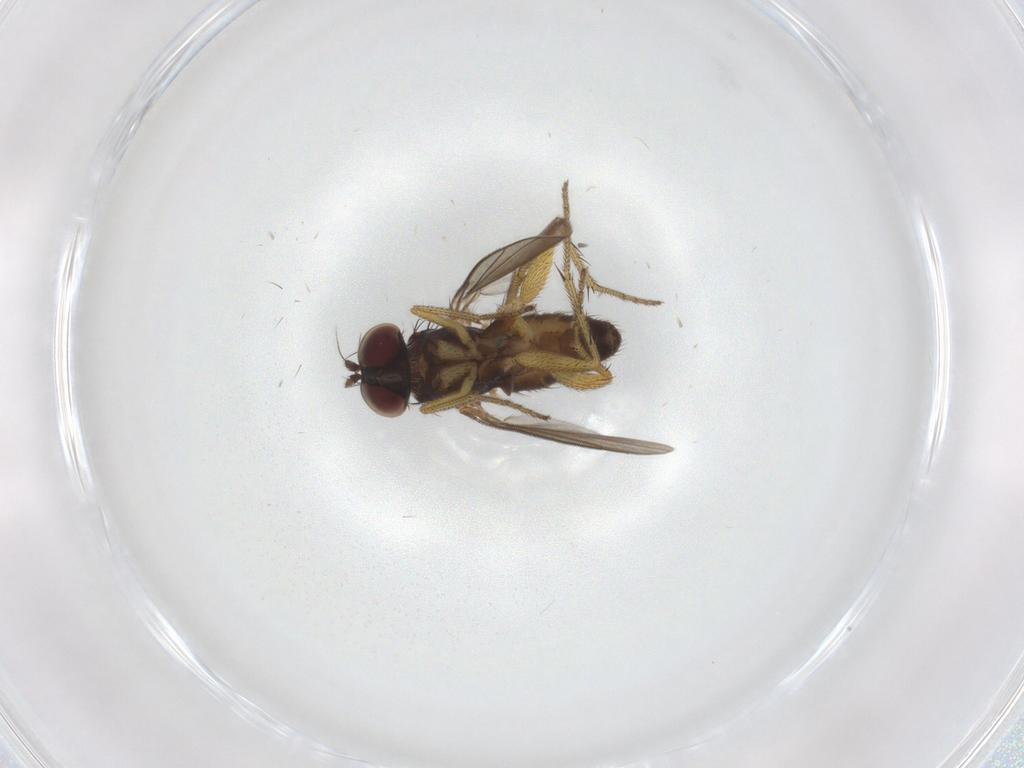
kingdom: Animalia
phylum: Arthropoda
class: Insecta
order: Diptera
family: Dolichopodidae
